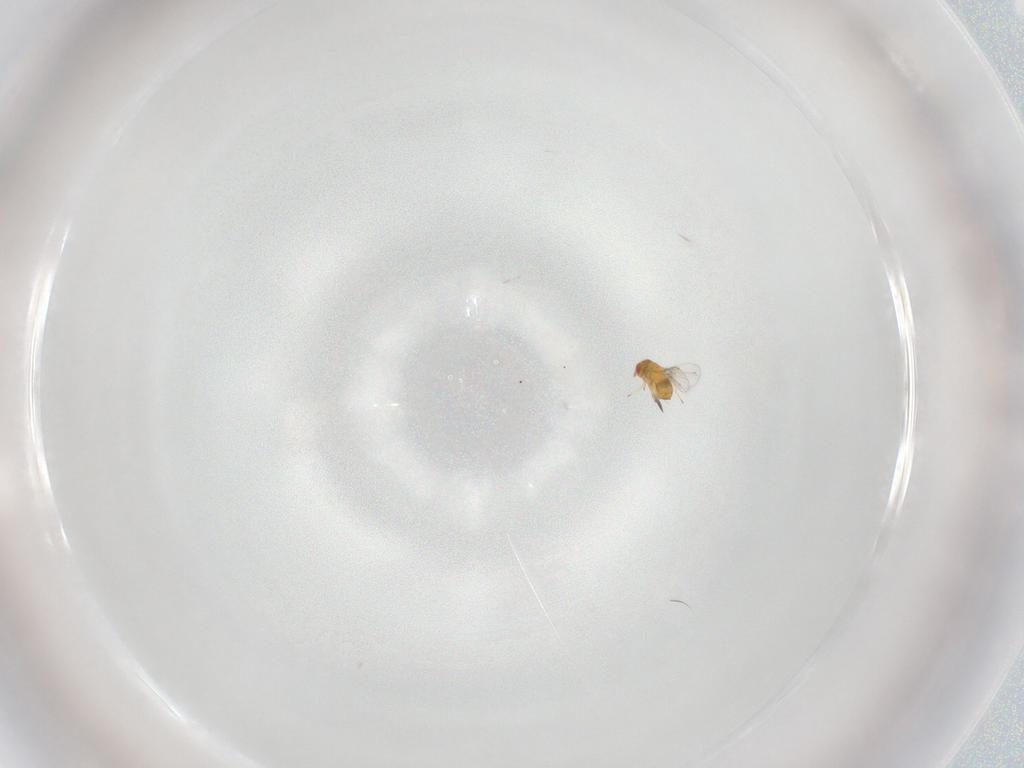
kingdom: Animalia
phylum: Arthropoda
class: Insecta
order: Hymenoptera
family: Trichogrammatidae
